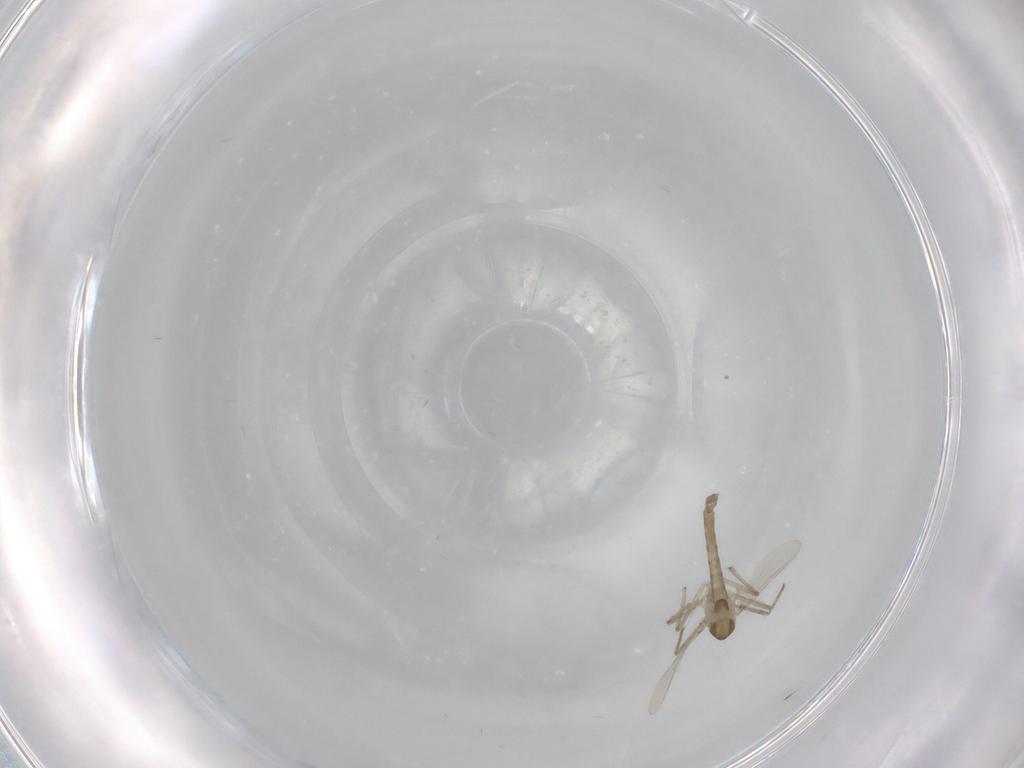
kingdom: Animalia
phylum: Arthropoda
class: Insecta
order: Diptera
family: Chironomidae
